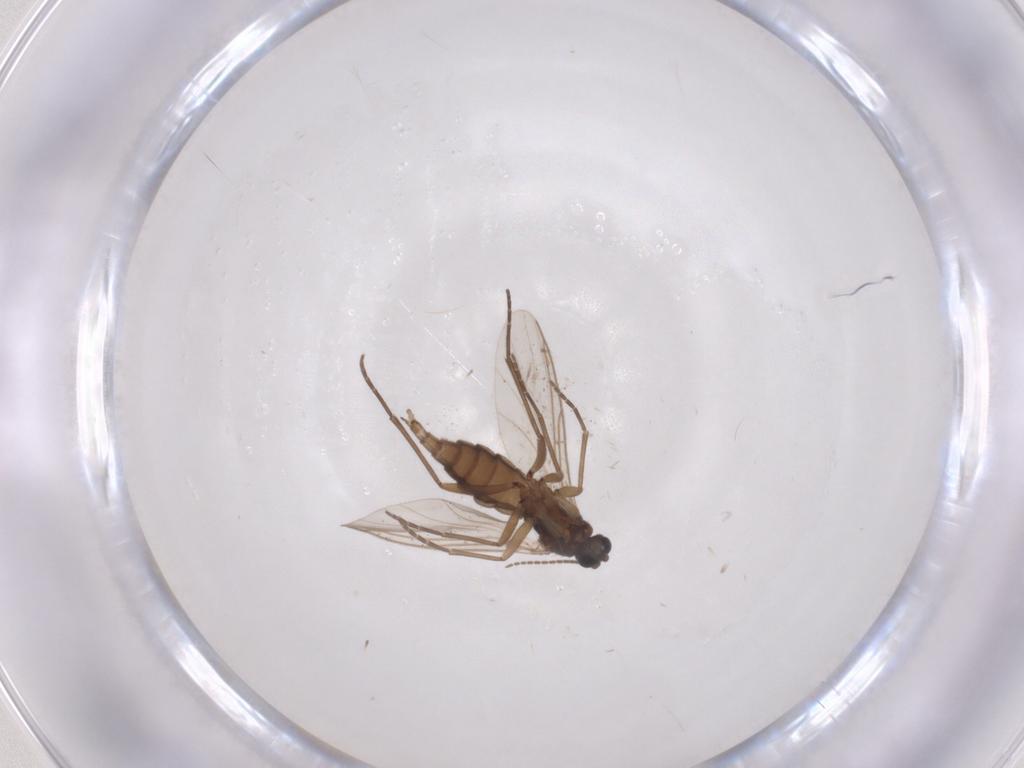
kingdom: Animalia
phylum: Arthropoda
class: Insecta
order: Diptera
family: Sciaridae
